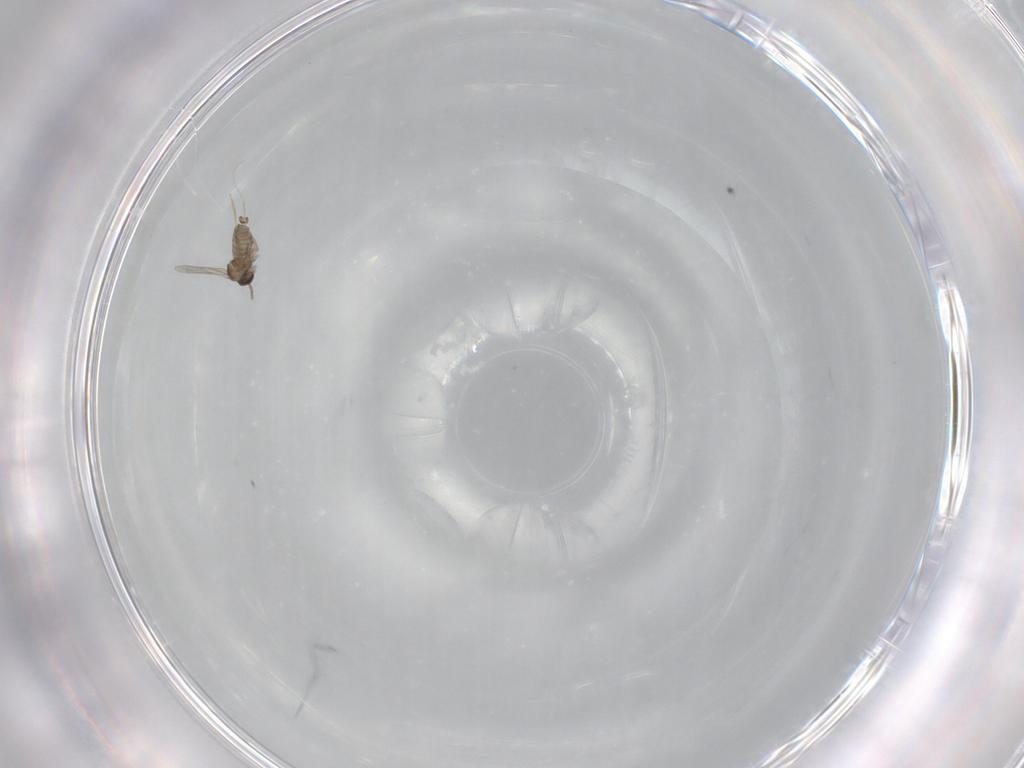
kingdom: Animalia
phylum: Arthropoda
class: Insecta
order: Diptera
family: Cecidomyiidae
